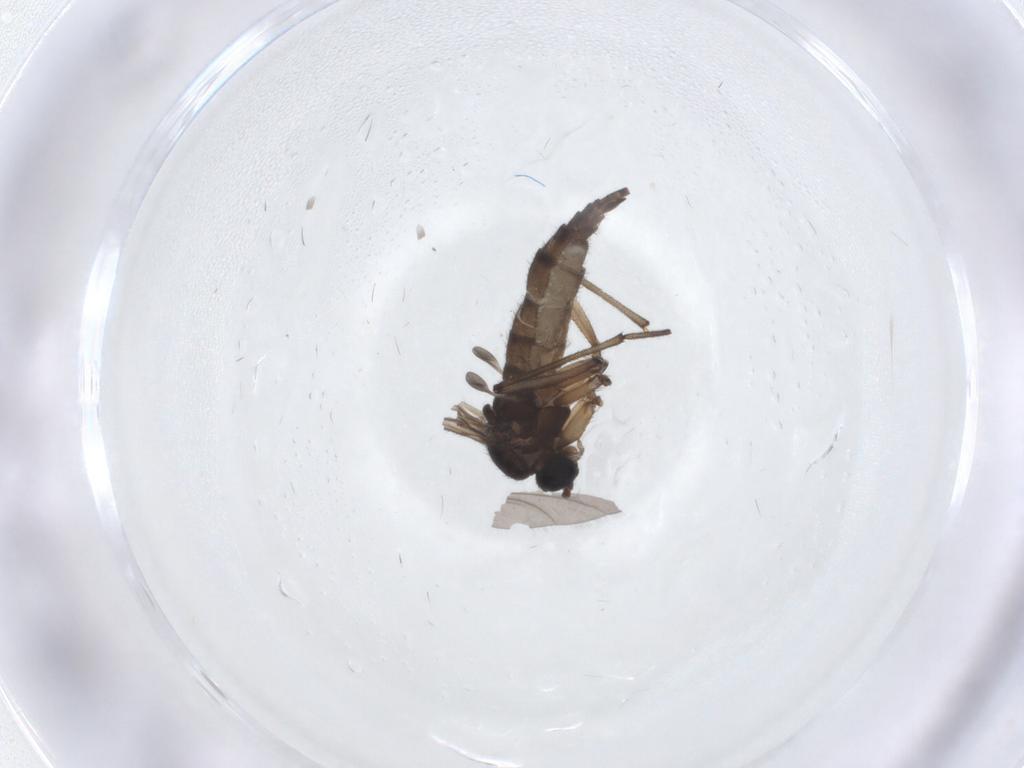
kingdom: Animalia
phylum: Arthropoda
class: Insecta
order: Diptera
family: Sciaridae
